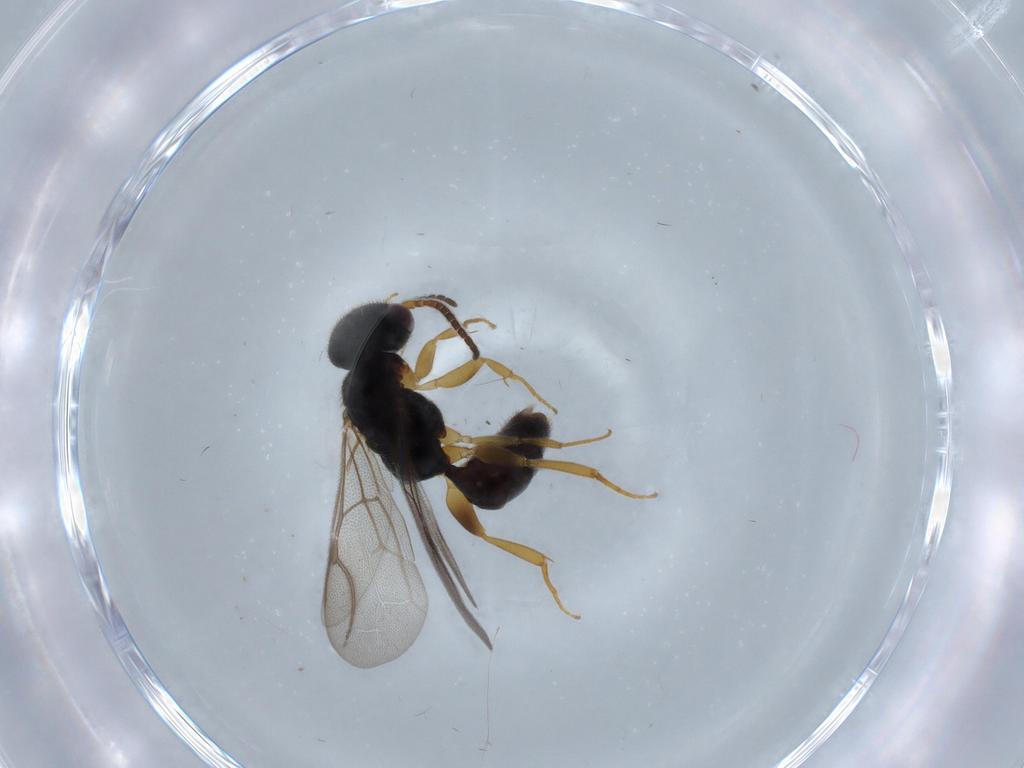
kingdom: Animalia
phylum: Arthropoda
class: Insecta
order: Hymenoptera
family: Bethylidae
